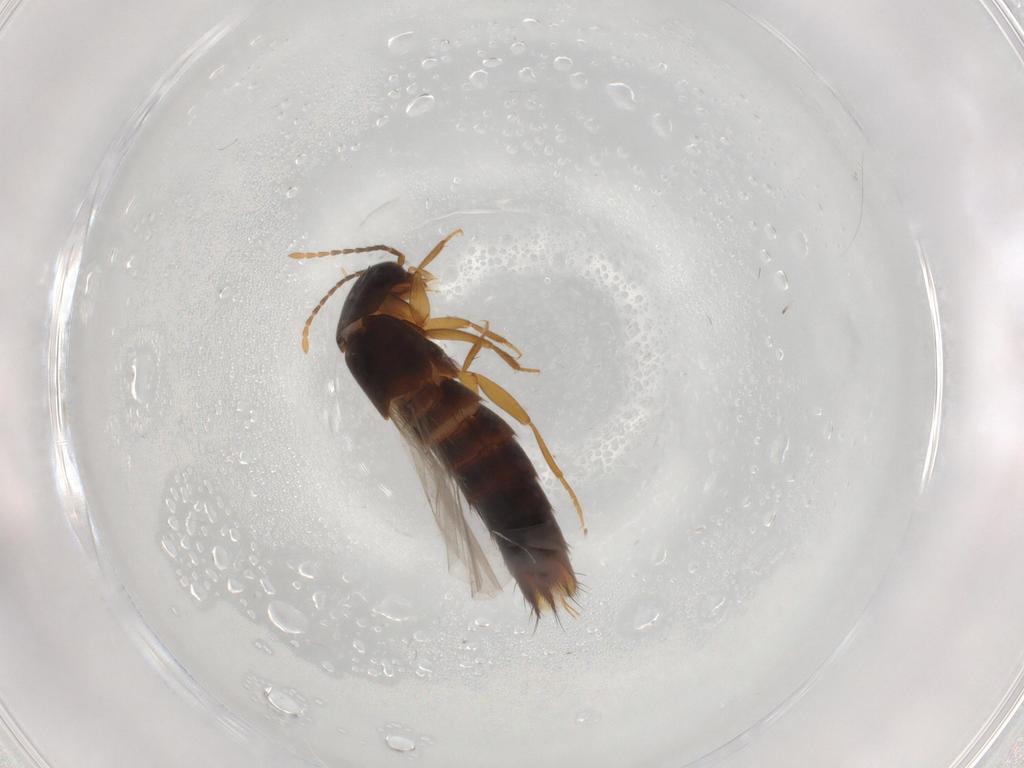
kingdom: Animalia
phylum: Arthropoda
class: Insecta
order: Coleoptera
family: Staphylinidae
